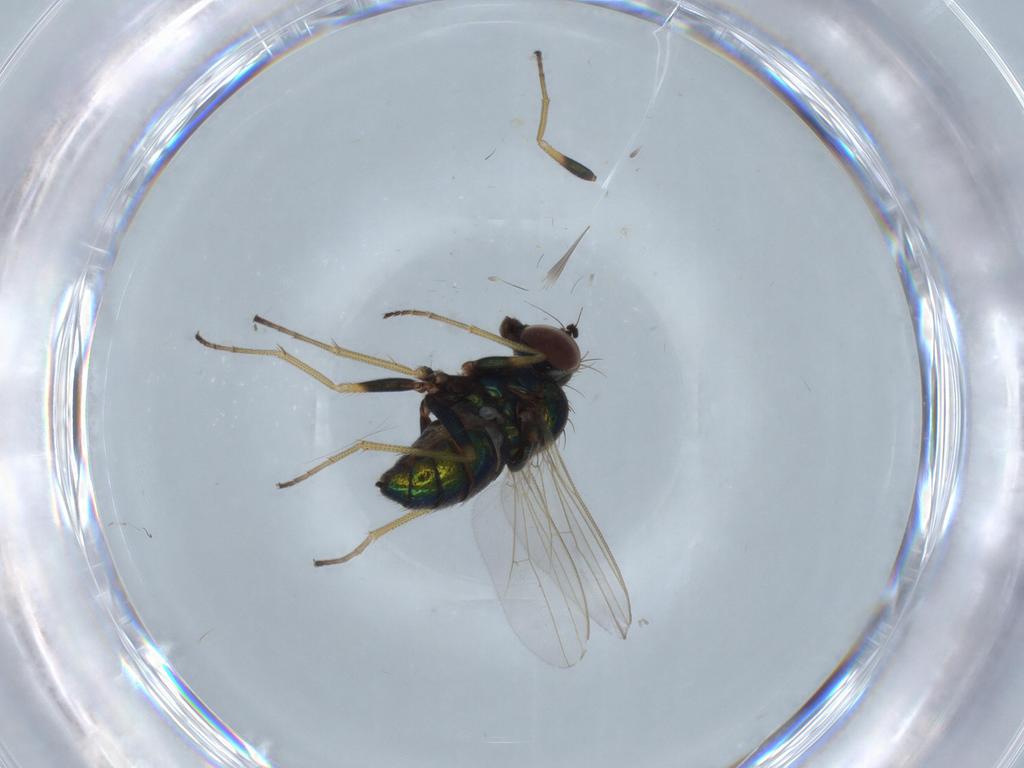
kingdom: Animalia
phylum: Arthropoda
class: Insecta
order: Diptera
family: Dolichopodidae
